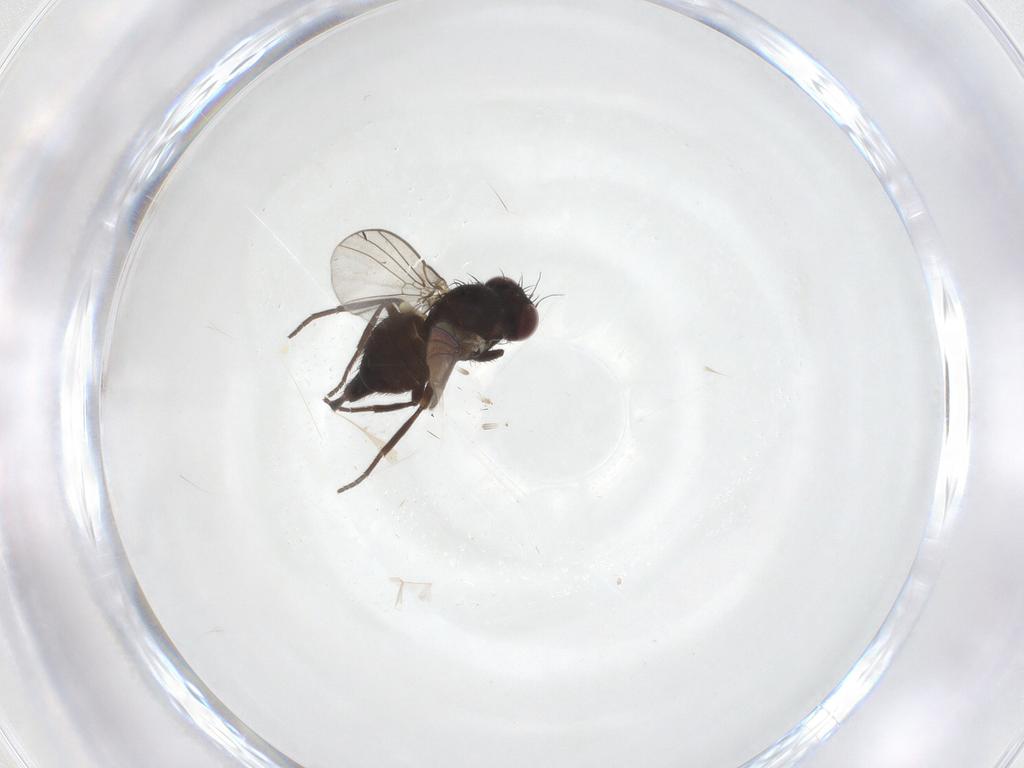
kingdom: Animalia
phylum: Arthropoda
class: Insecta
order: Diptera
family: Agromyzidae
